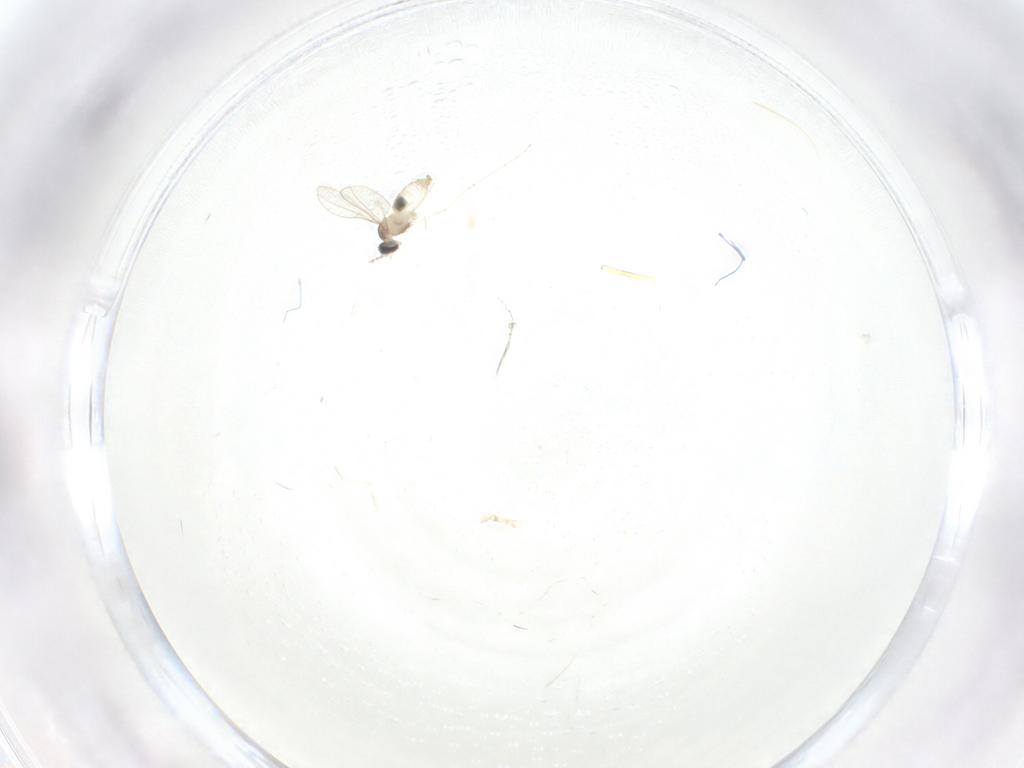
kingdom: Animalia
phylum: Arthropoda
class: Insecta
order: Diptera
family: Cecidomyiidae
